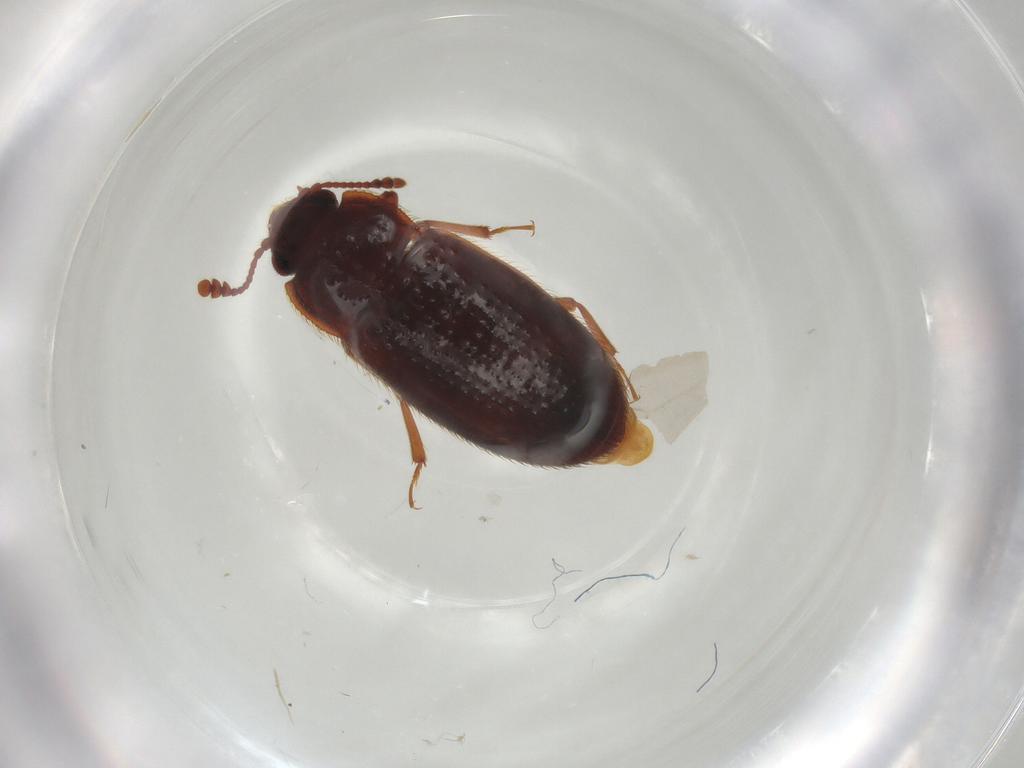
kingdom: Animalia
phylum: Arthropoda
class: Insecta
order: Coleoptera
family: Biphyllidae
